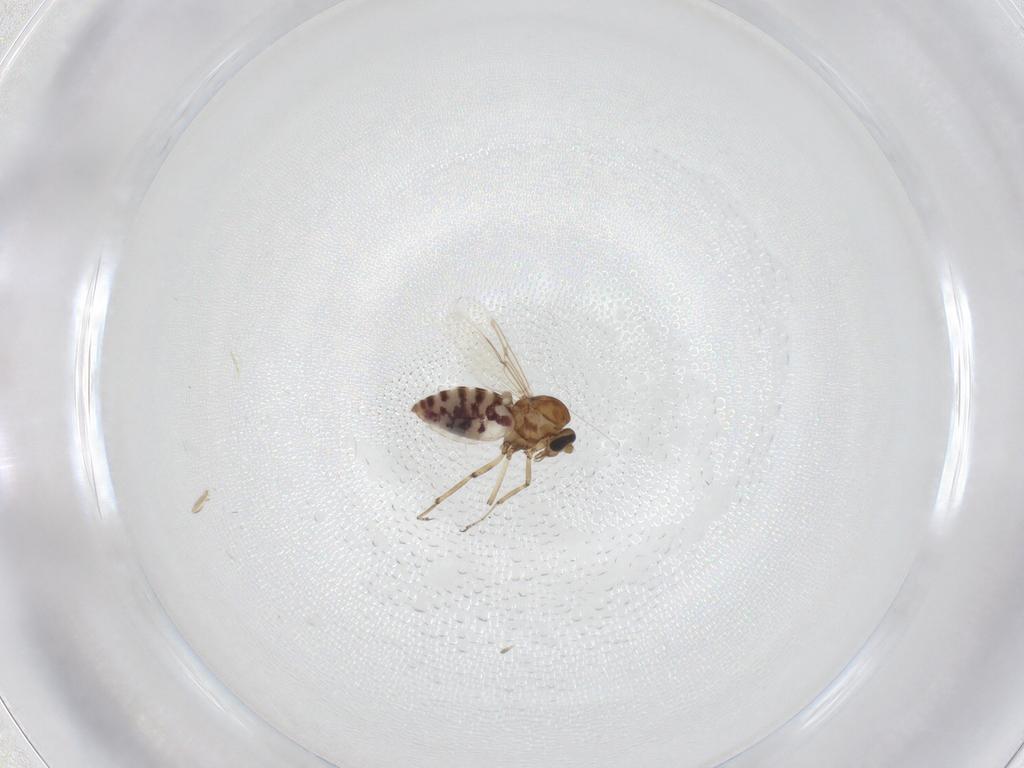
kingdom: Animalia
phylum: Arthropoda
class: Insecta
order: Diptera
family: Ceratopogonidae
